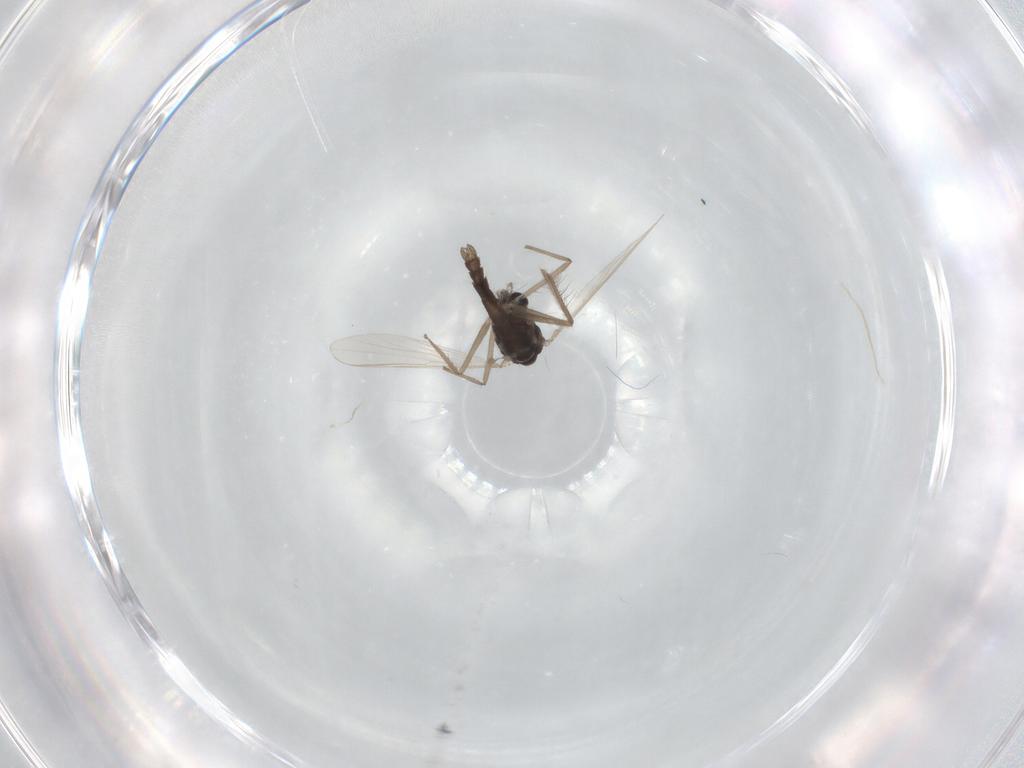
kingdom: Animalia
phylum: Arthropoda
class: Insecta
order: Diptera
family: Chironomidae
